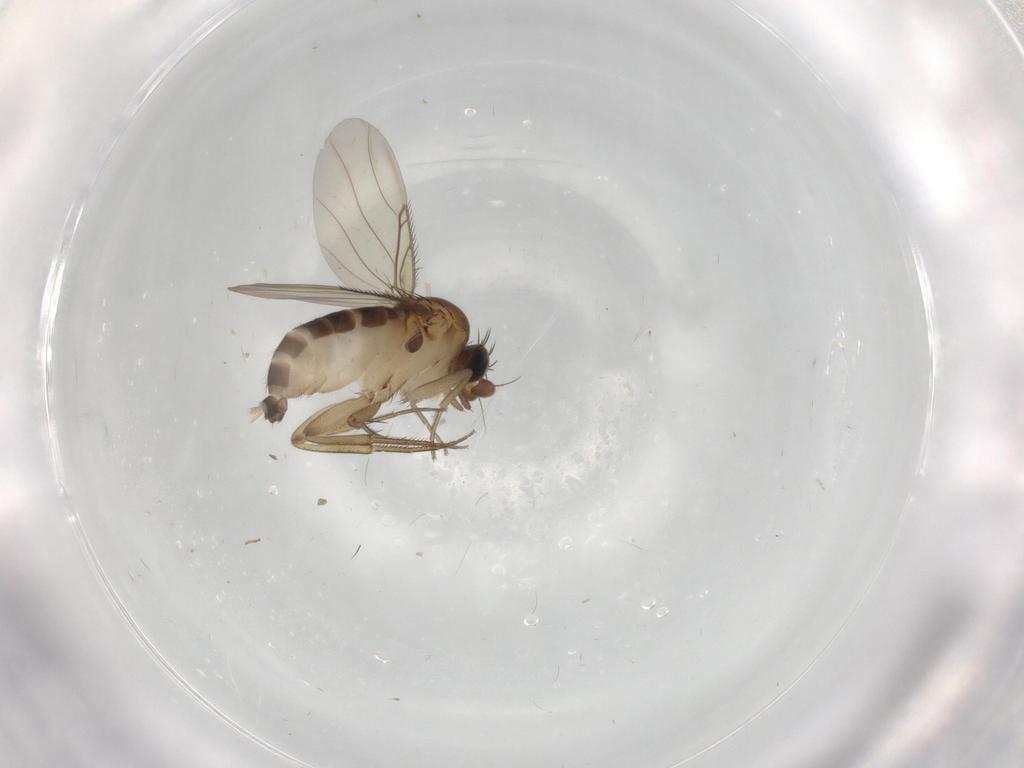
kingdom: Animalia
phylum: Arthropoda
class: Insecta
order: Diptera
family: Phoridae
